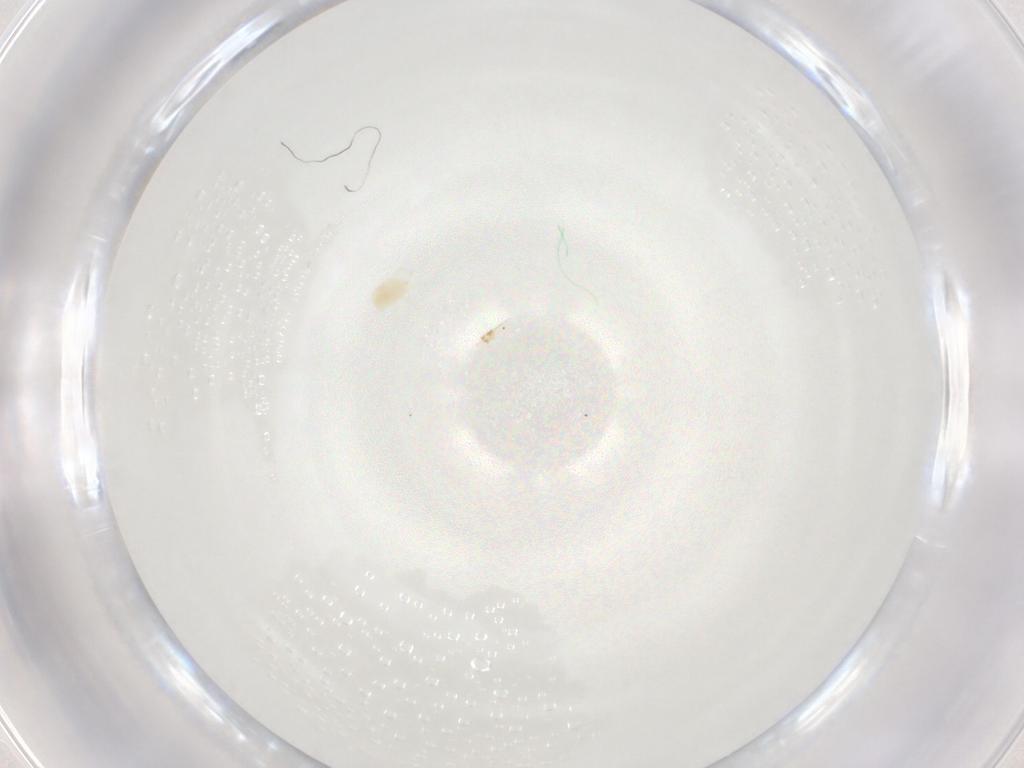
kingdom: Animalia
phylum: Arthropoda
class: Arachnida
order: Trombidiformes
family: Tetranychidae
